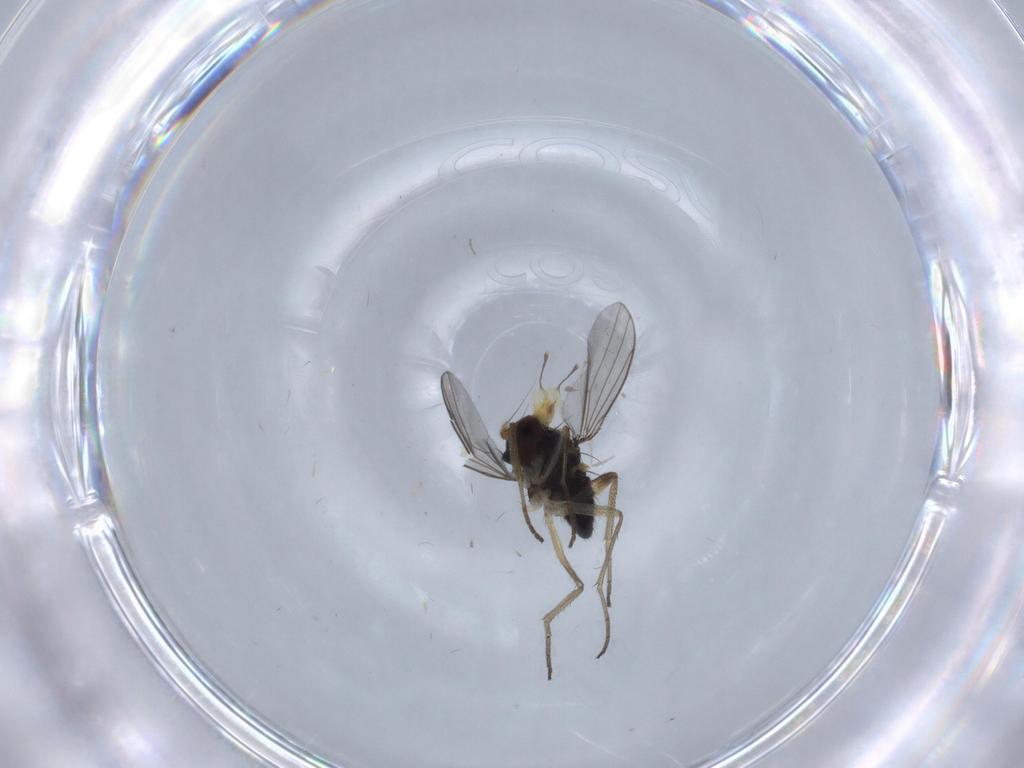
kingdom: Animalia
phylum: Arthropoda
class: Insecta
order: Diptera
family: Dolichopodidae
